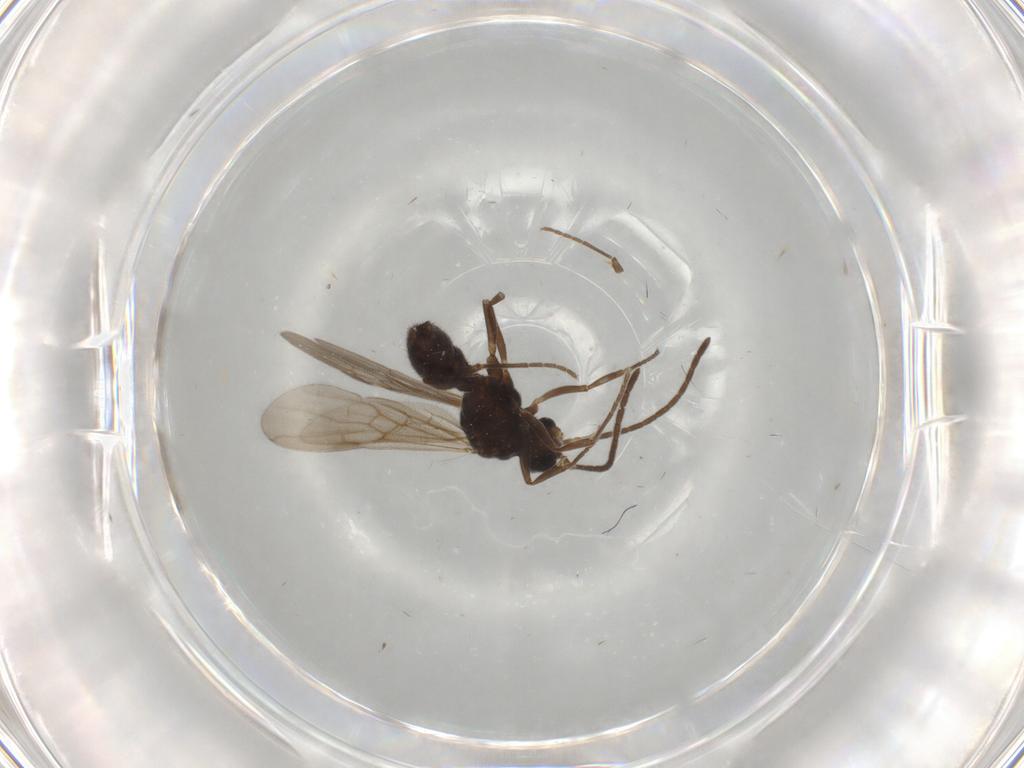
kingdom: Animalia
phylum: Arthropoda
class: Insecta
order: Hymenoptera
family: Formicidae
